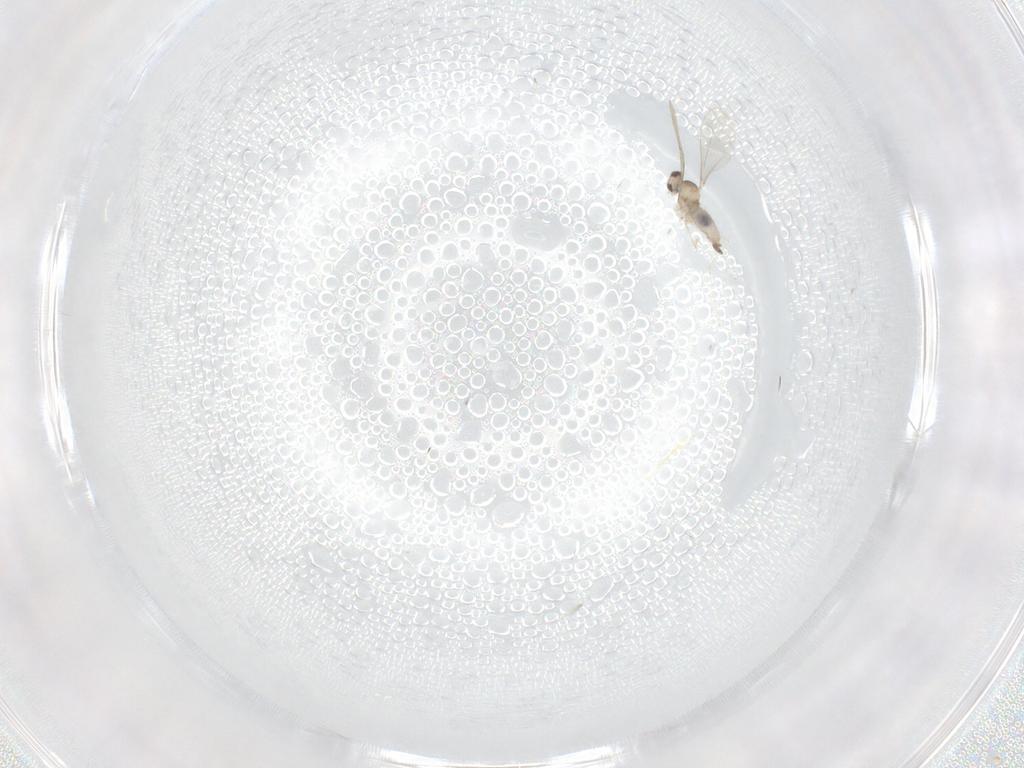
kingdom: Animalia
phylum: Arthropoda
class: Insecta
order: Diptera
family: Cecidomyiidae
